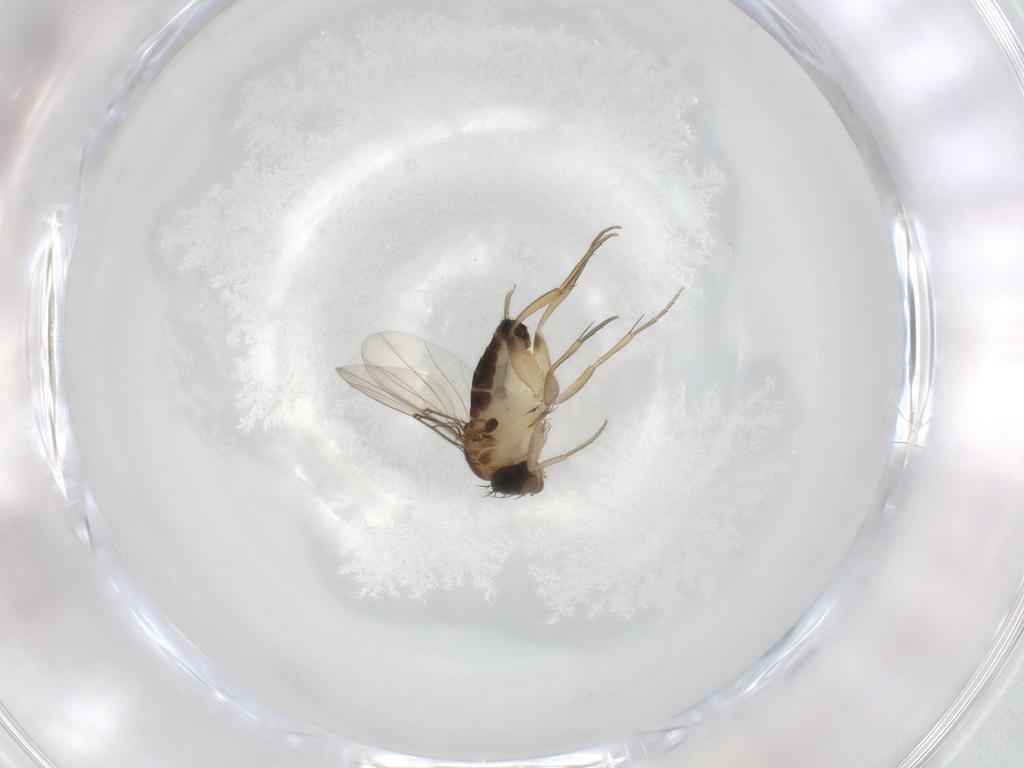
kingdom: Animalia
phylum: Arthropoda
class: Insecta
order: Diptera
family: Phoridae
